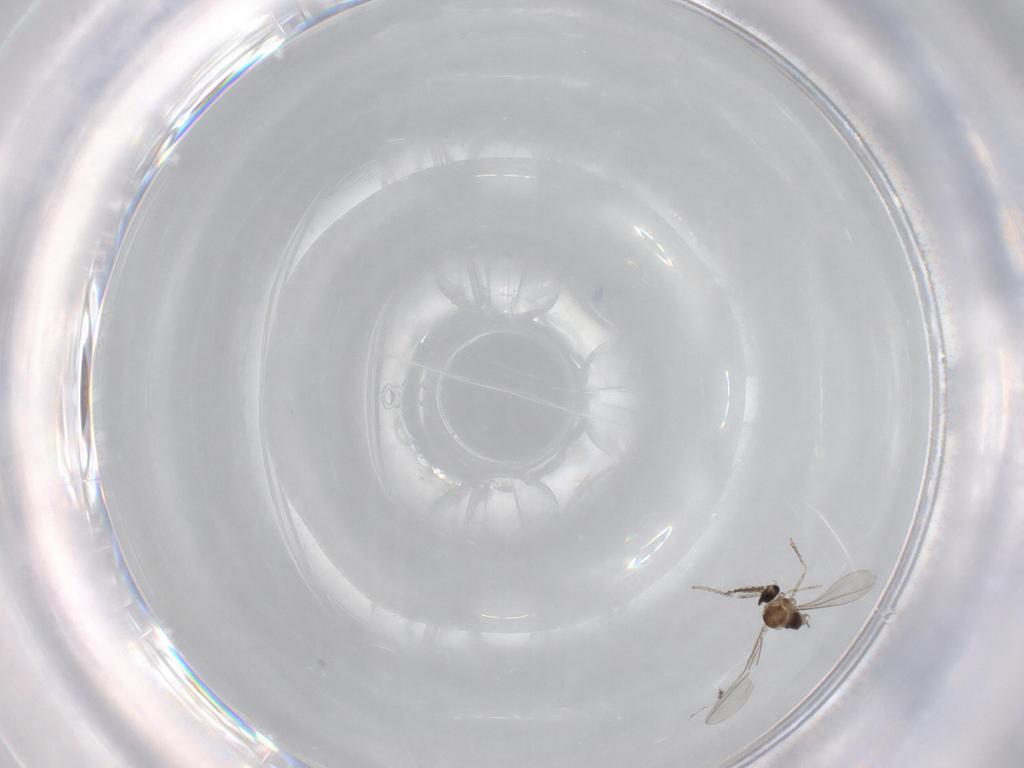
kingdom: Animalia
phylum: Arthropoda
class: Insecta
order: Diptera
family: Cecidomyiidae
